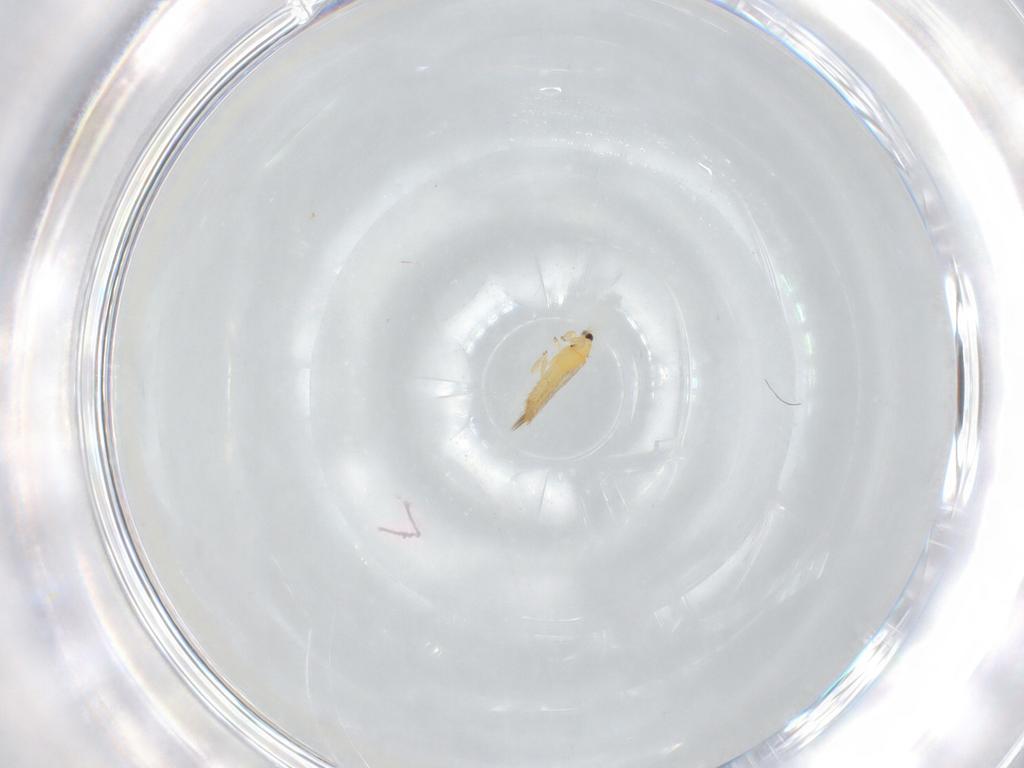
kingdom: Animalia
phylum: Arthropoda
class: Insecta
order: Thysanoptera
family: Thripidae
